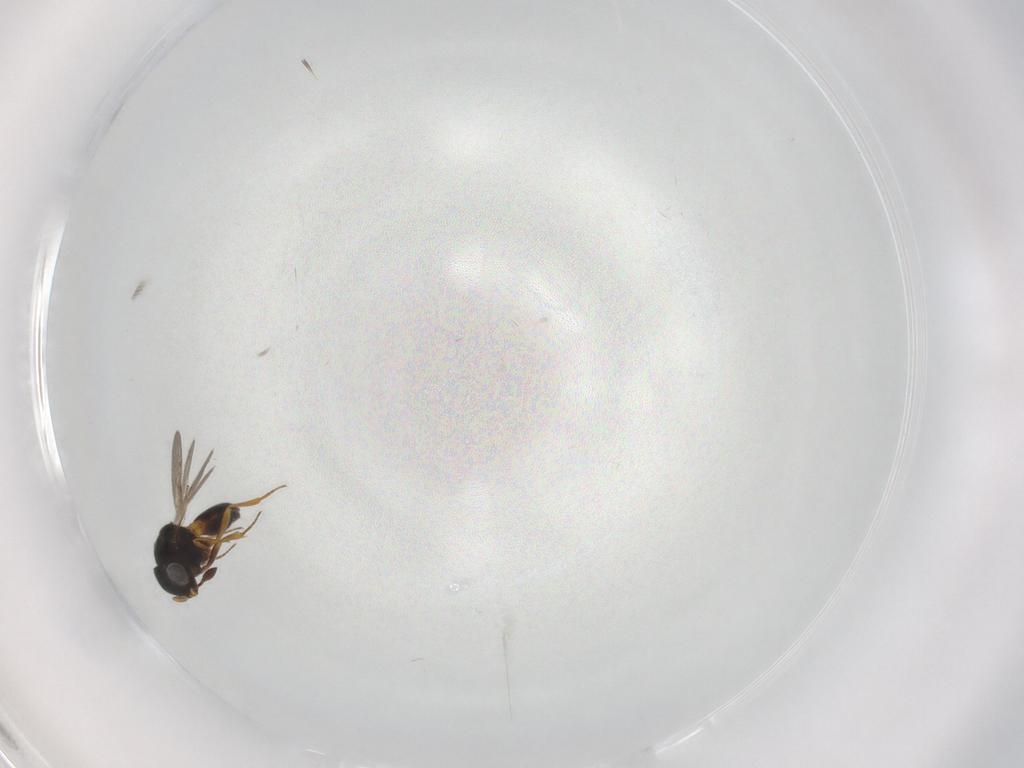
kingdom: Animalia
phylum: Arthropoda
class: Insecta
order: Hymenoptera
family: Scelionidae
